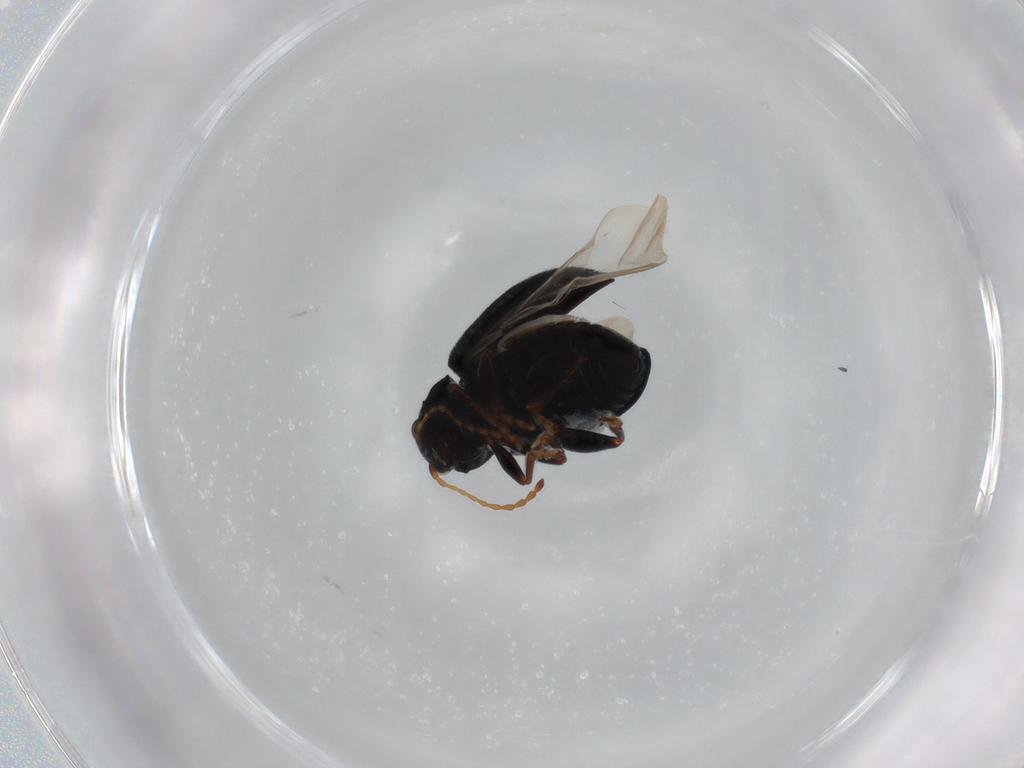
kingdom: Animalia
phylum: Arthropoda
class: Insecta
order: Coleoptera
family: Chrysomelidae
